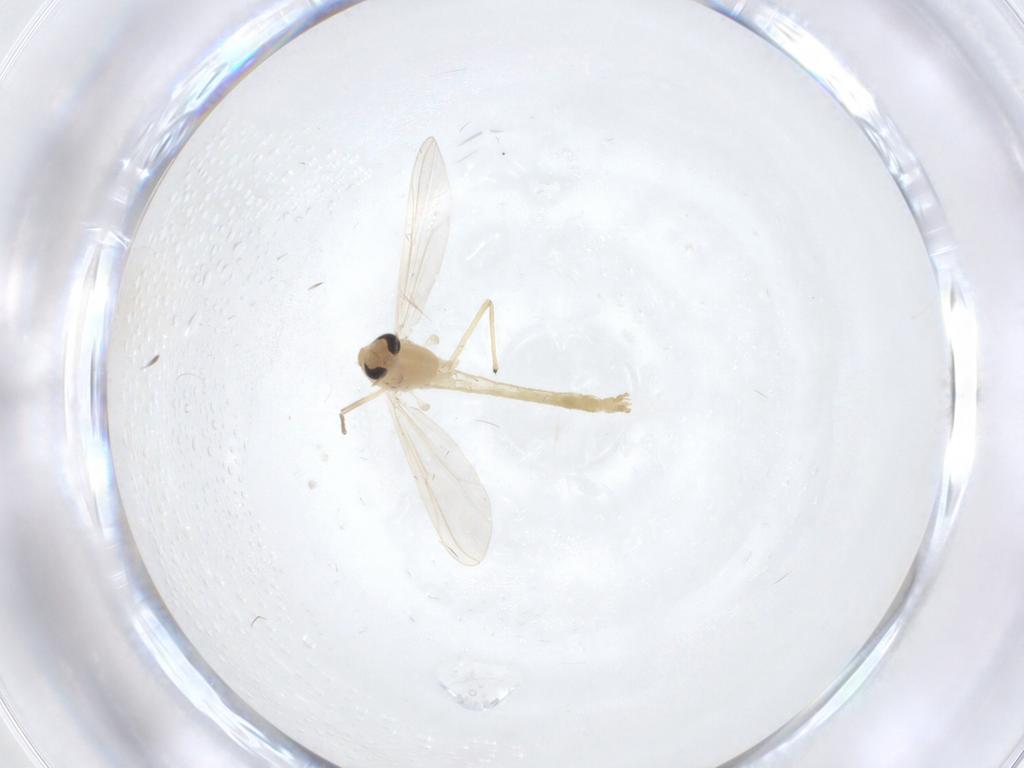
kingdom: Animalia
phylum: Arthropoda
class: Insecta
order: Diptera
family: Chironomidae
